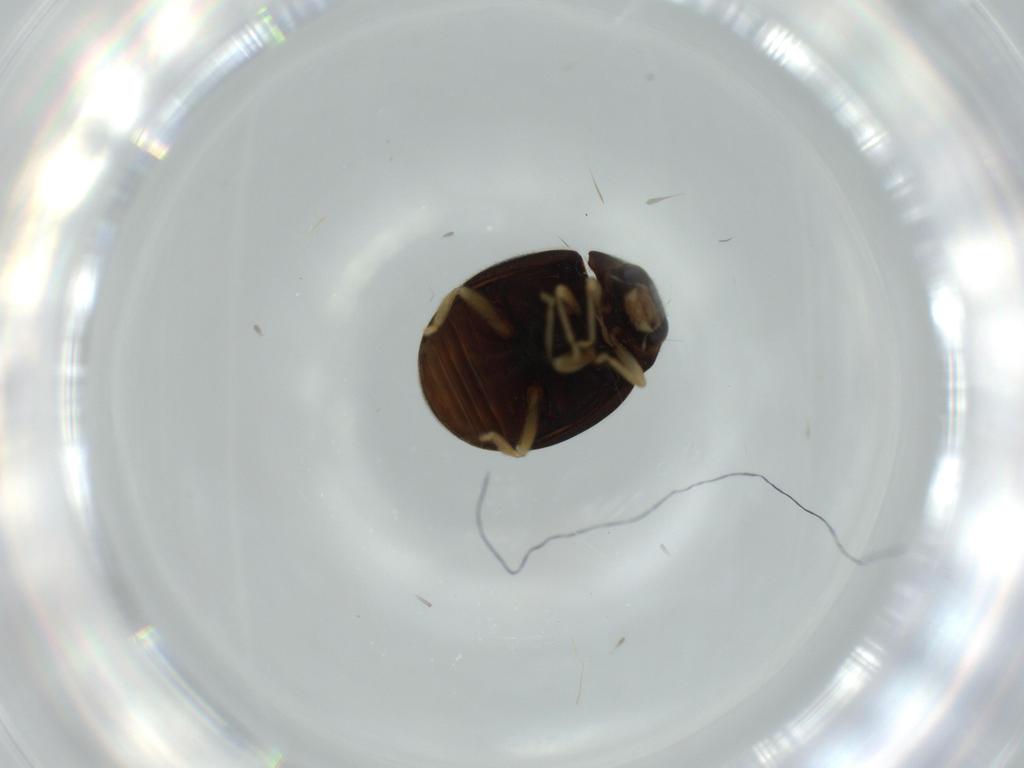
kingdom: Animalia
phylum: Arthropoda
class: Insecta
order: Coleoptera
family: Coccinellidae
